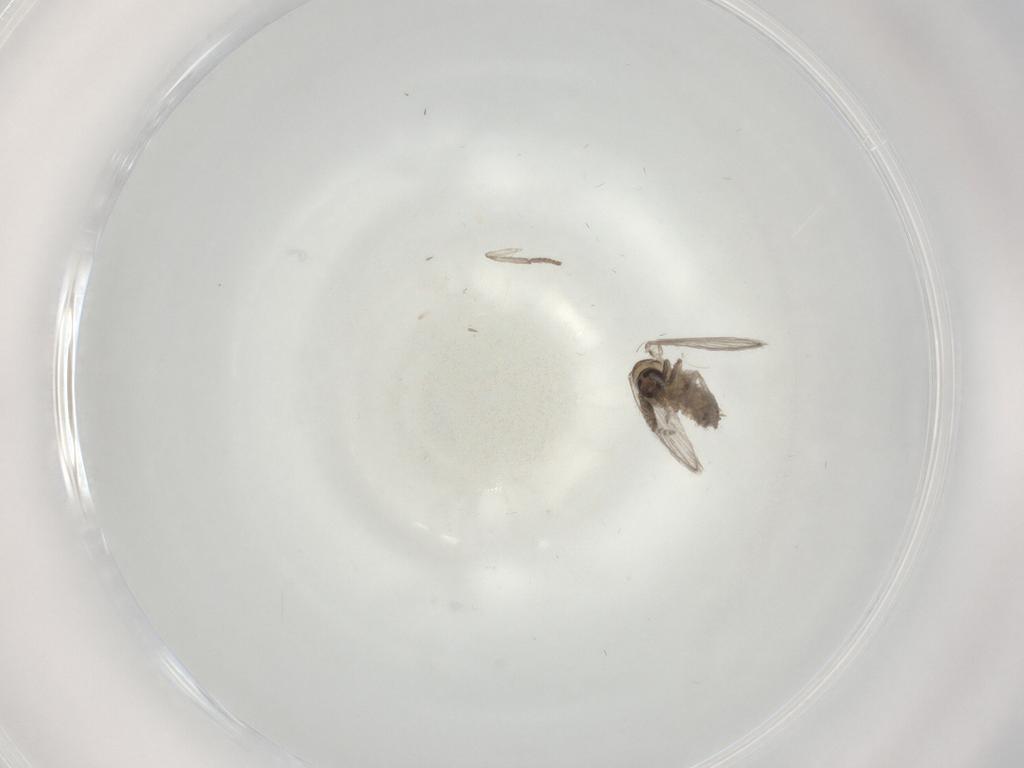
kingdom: Animalia
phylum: Arthropoda
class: Insecta
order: Diptera
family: Psychodidae
